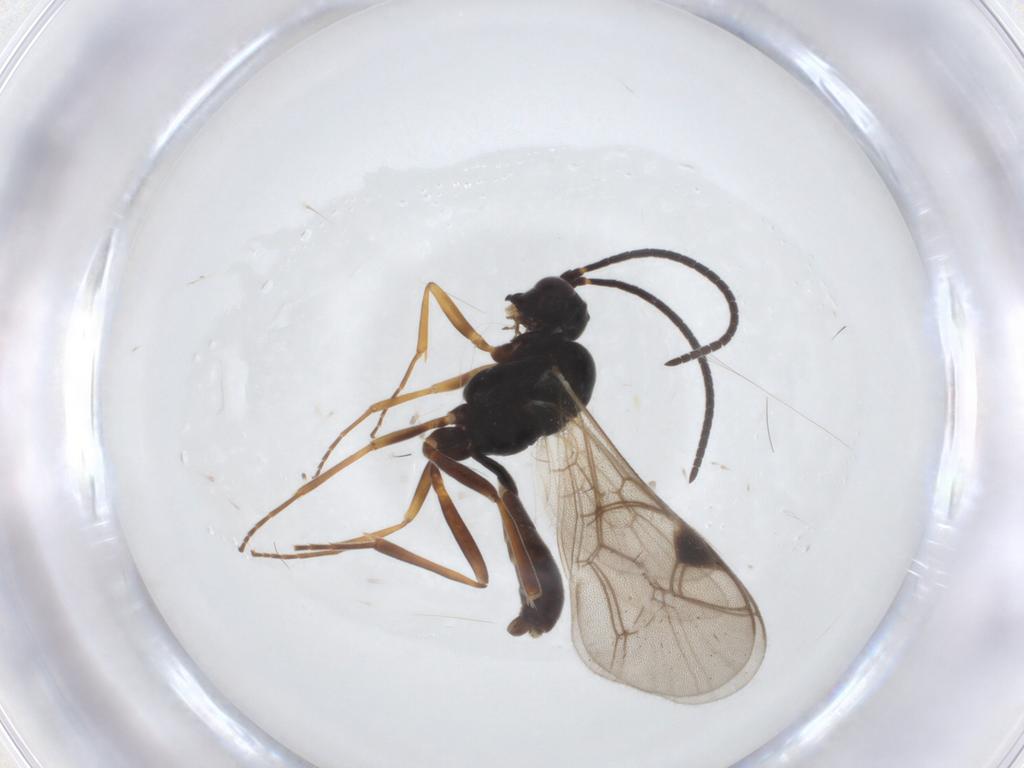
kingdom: Animalia
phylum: Arthropoda
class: Insecta
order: Hymenoptera
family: Ichneumonidae
